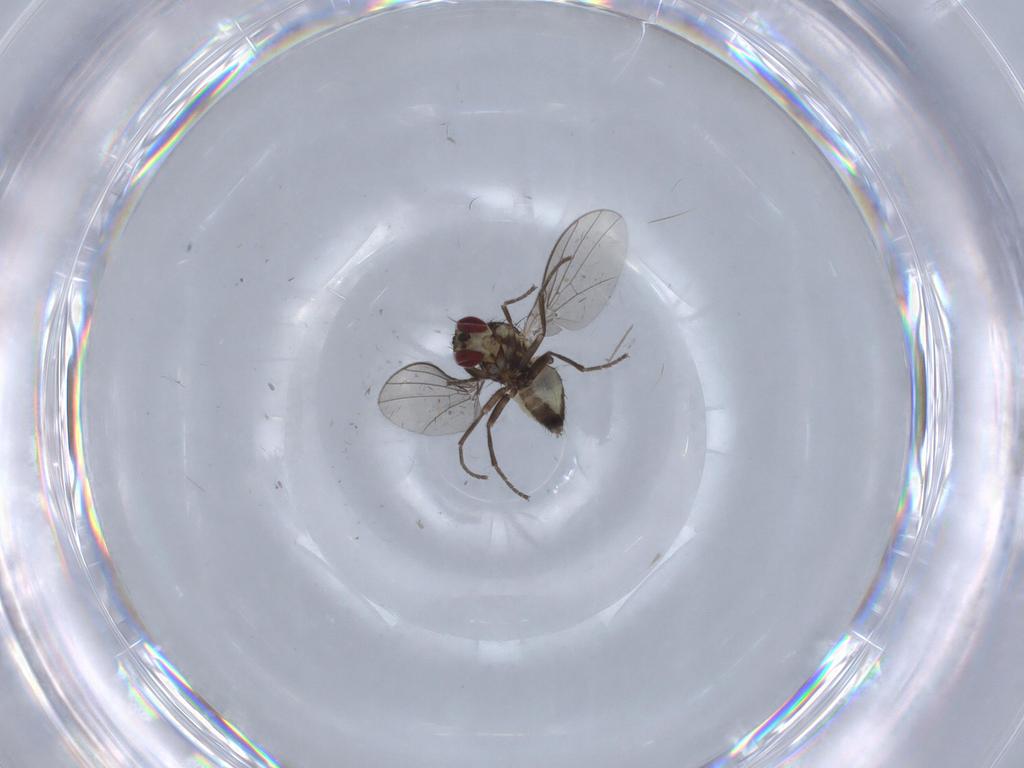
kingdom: Animalia
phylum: Arthropoda
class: Insecta
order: Diptera
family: Agromyzidae
